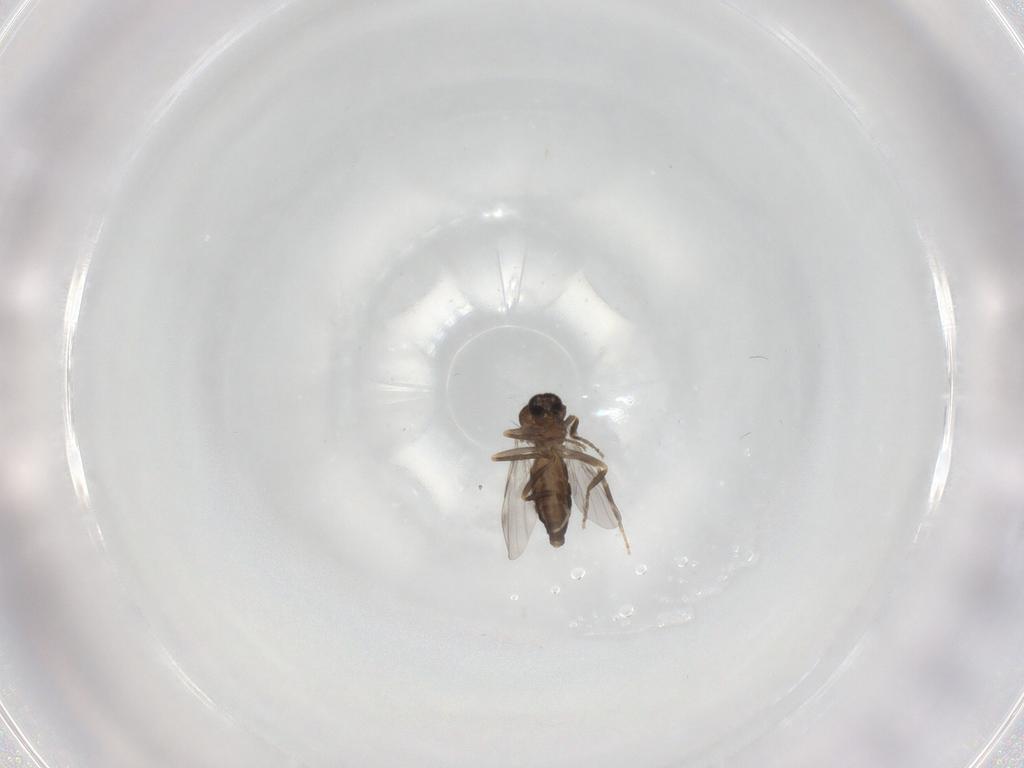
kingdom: Animalia
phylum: Arthropoda
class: Insecta
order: Diptera
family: Ceratopogonidae
